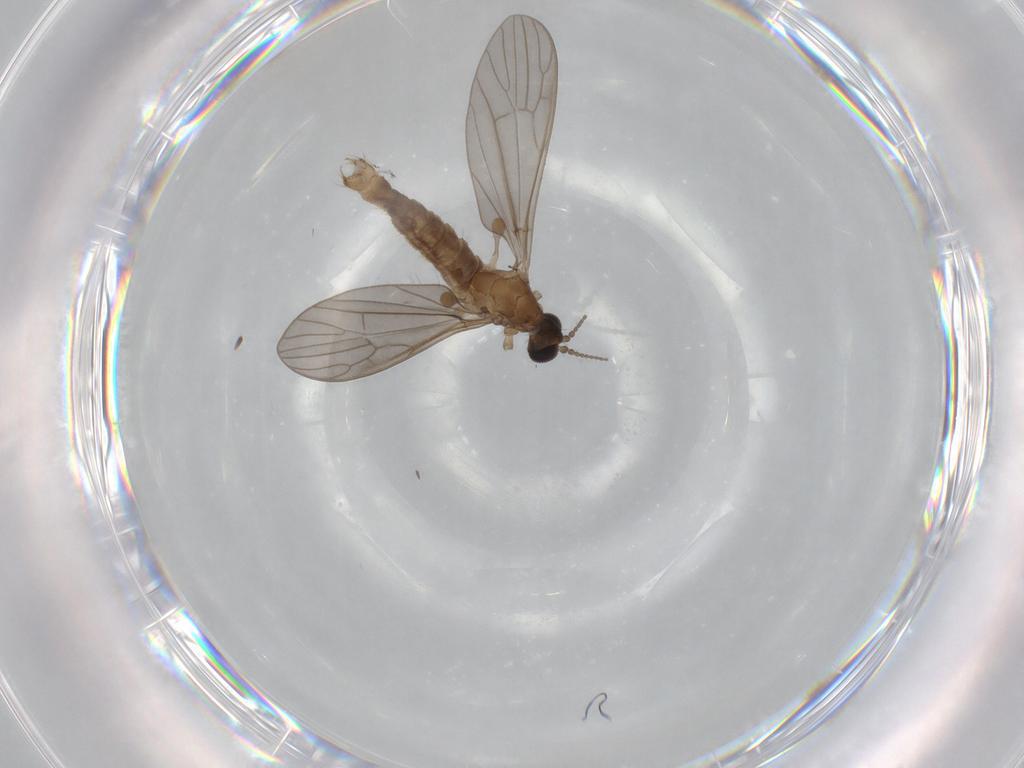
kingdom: Animalia
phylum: Arthropoda
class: Insecta
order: Diptera
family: Limoniidae
